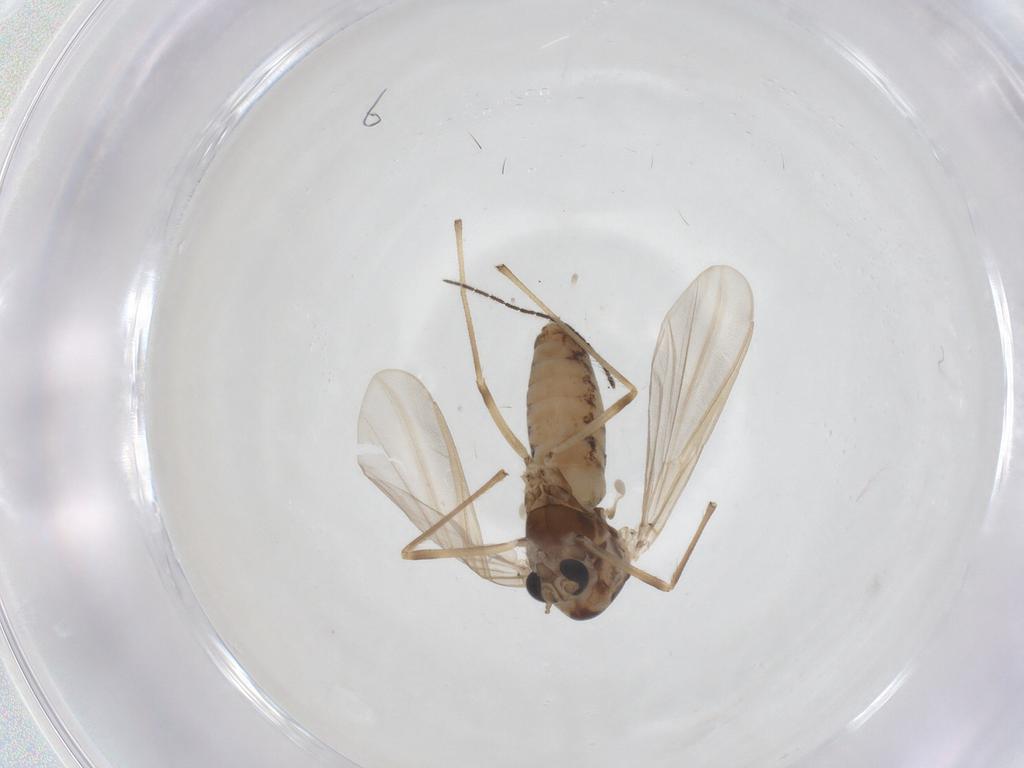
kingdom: Animalia
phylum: Arthropoda
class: Insecta
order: Diptera
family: Chironomidae
